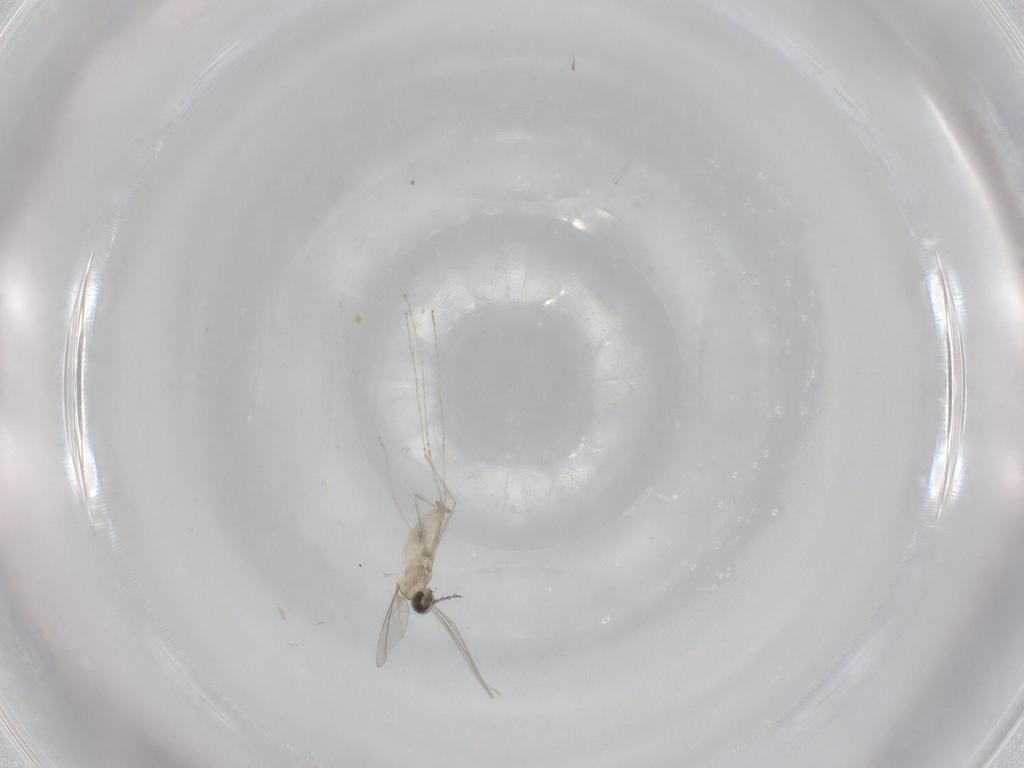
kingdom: Animalia
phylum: Arthropoda
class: Insecta
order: Diptera
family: Cecidomyiidae
